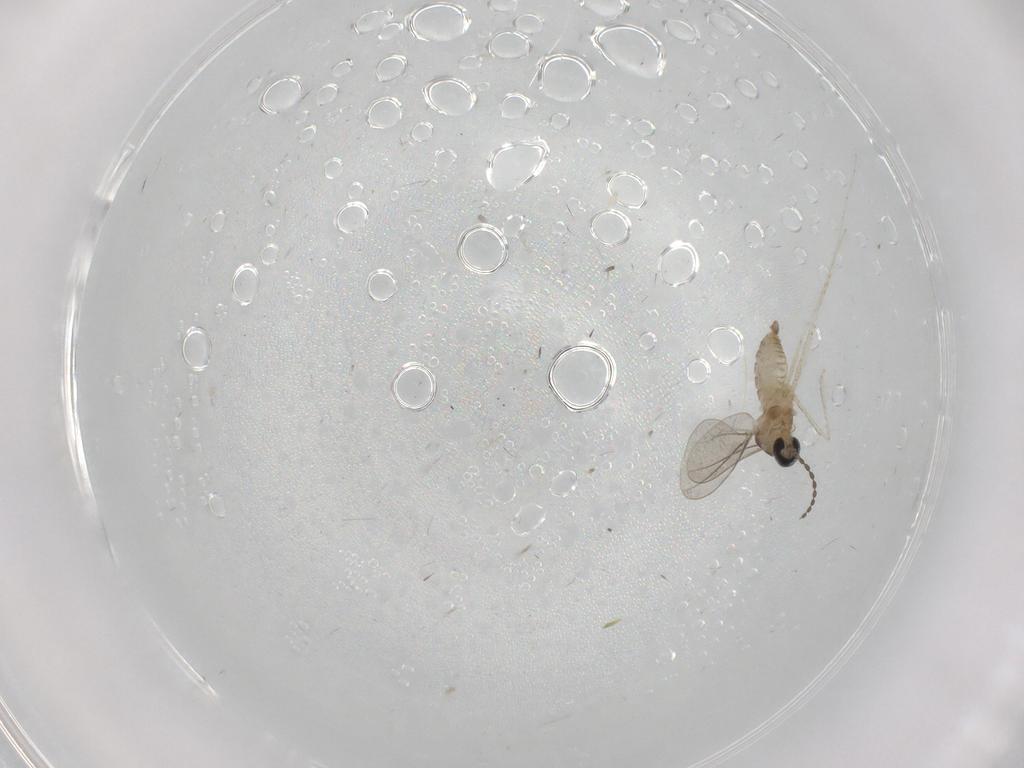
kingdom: Animalia
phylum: Arthropoda
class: Insecta
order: Diptera
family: Cecidomyiidae
